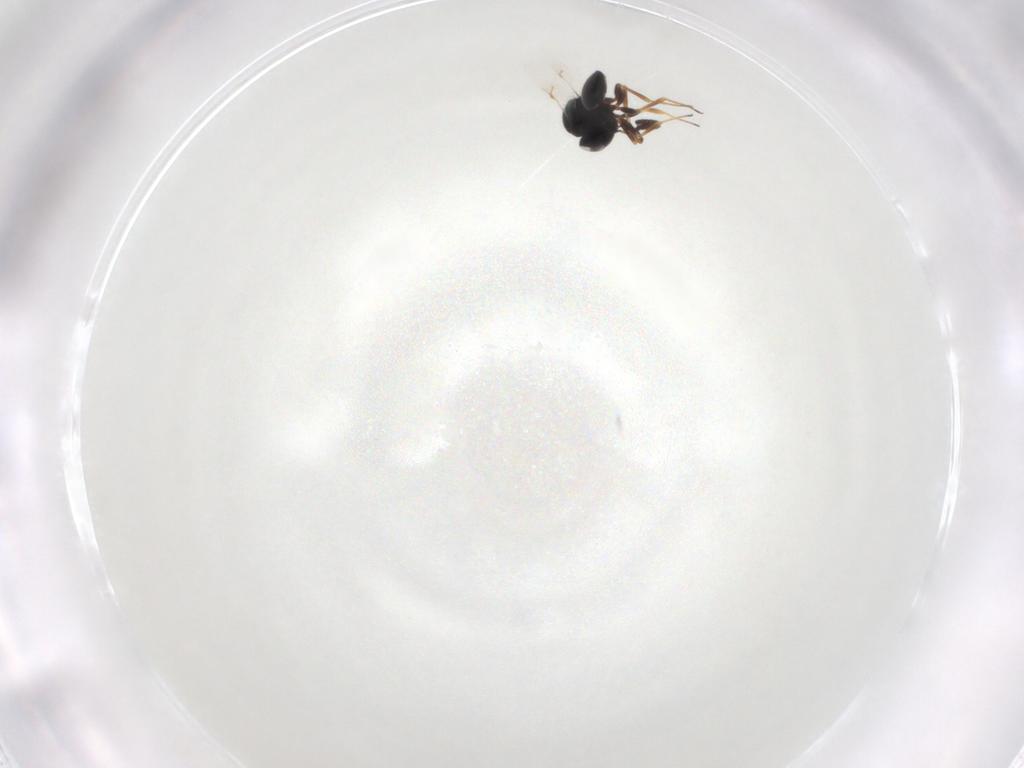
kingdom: Animalia
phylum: Arthropoda
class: Insecta
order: Hymenoptera
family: Scelionidae
